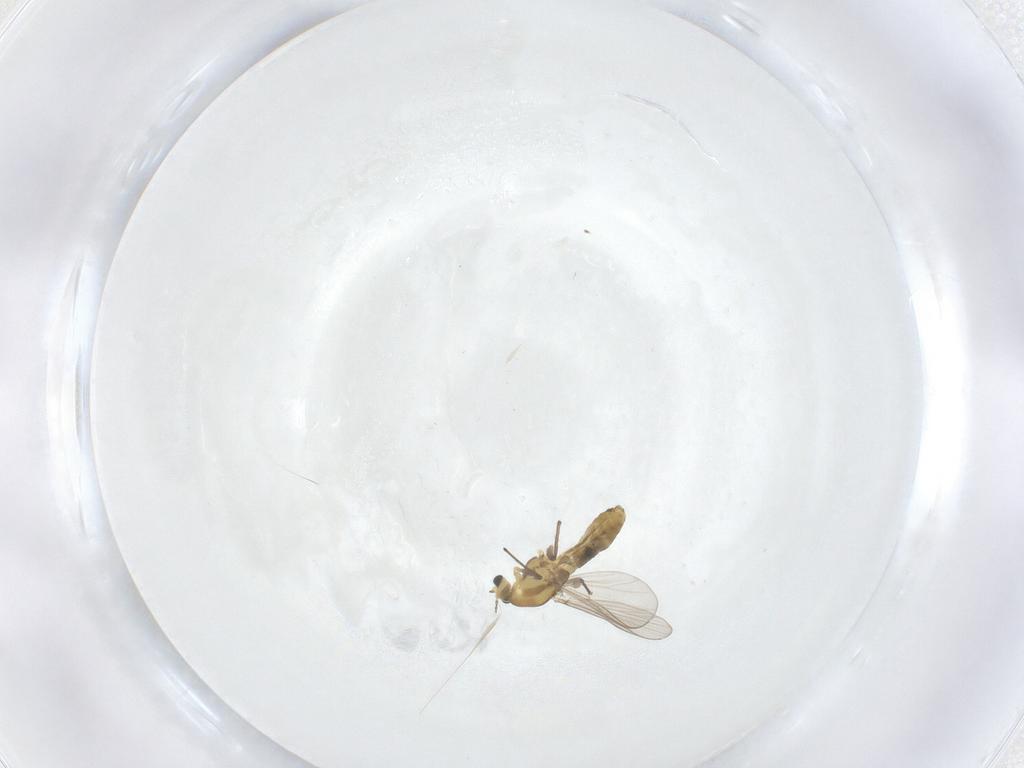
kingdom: Animalia
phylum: Arthropoda
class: Insecta
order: Diptera
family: Chironomidae
